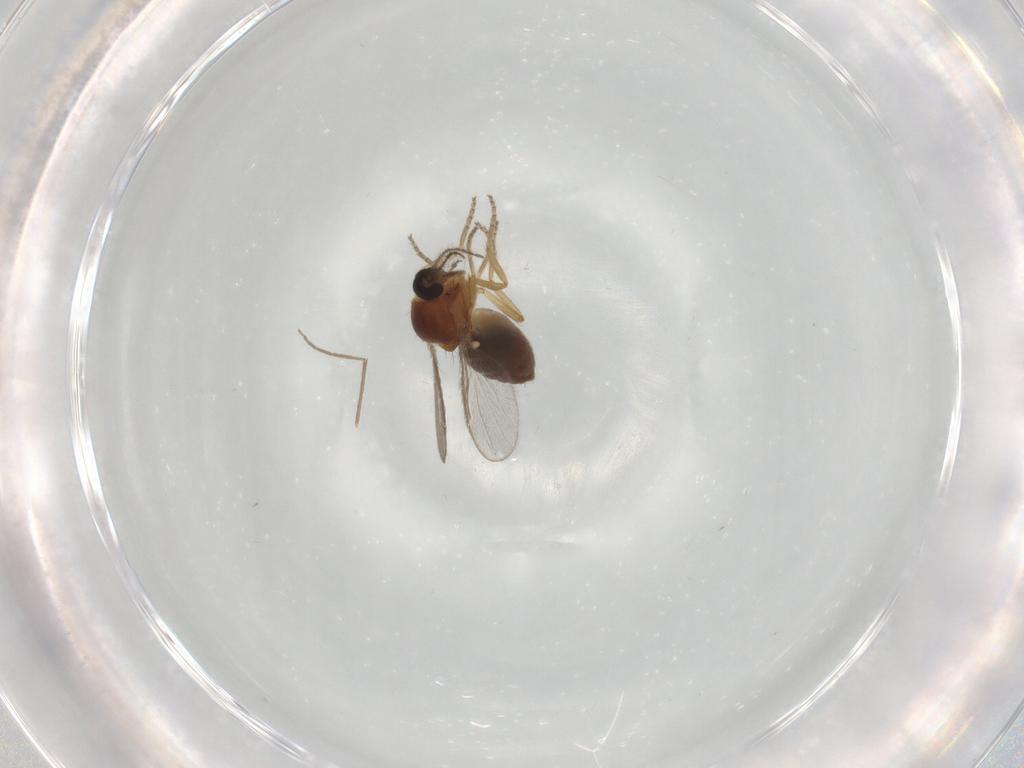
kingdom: Animalia
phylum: Arthropoda
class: Insecta
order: Diptera
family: Ceratopogonidae
